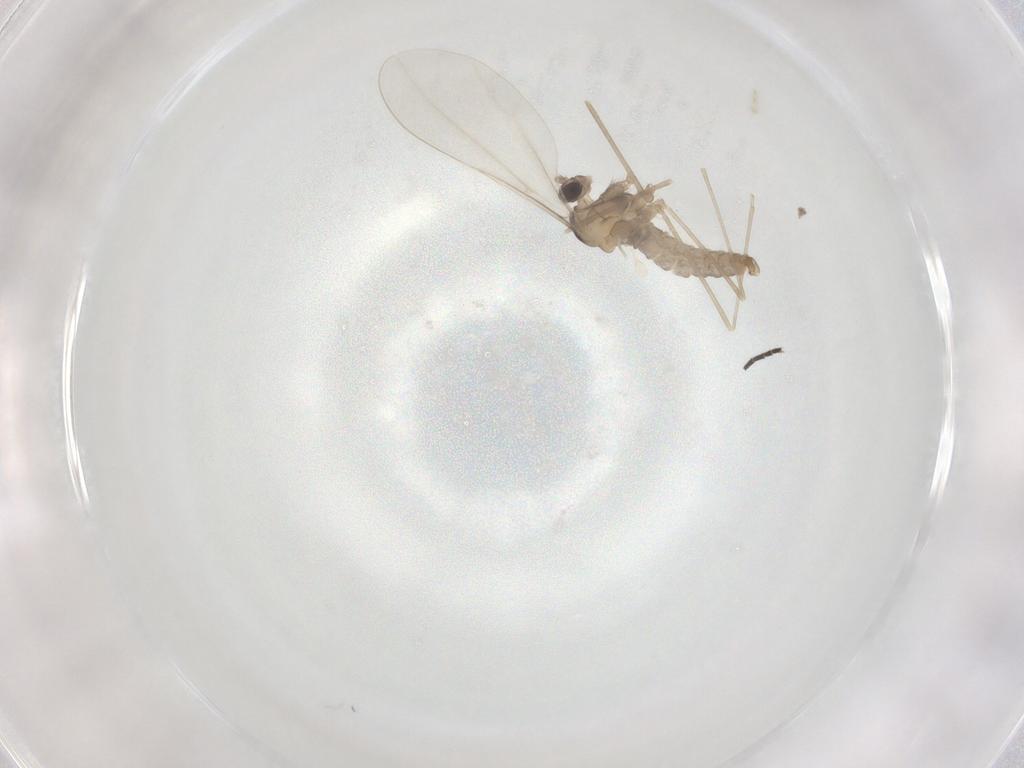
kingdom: Animalia
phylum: Arthropoda
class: Insecta
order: Diptera
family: Cecidomyiidae
